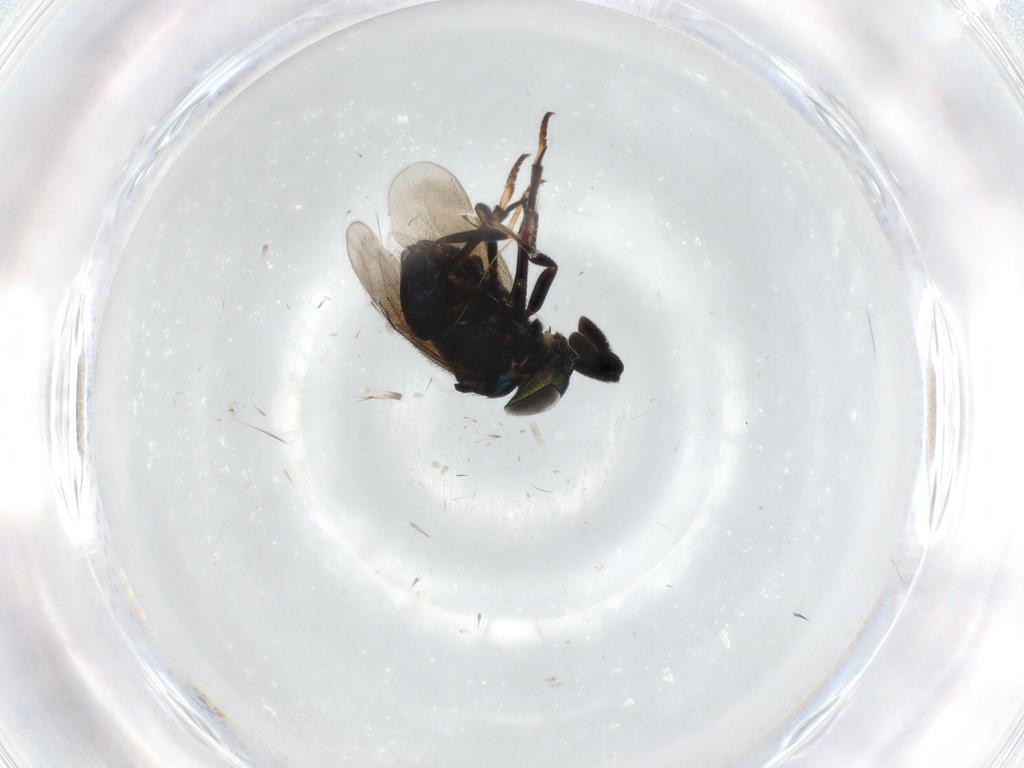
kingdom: Animalia
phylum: Arthropoda
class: Insecta
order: Hymenoptera
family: Encyrtidae
